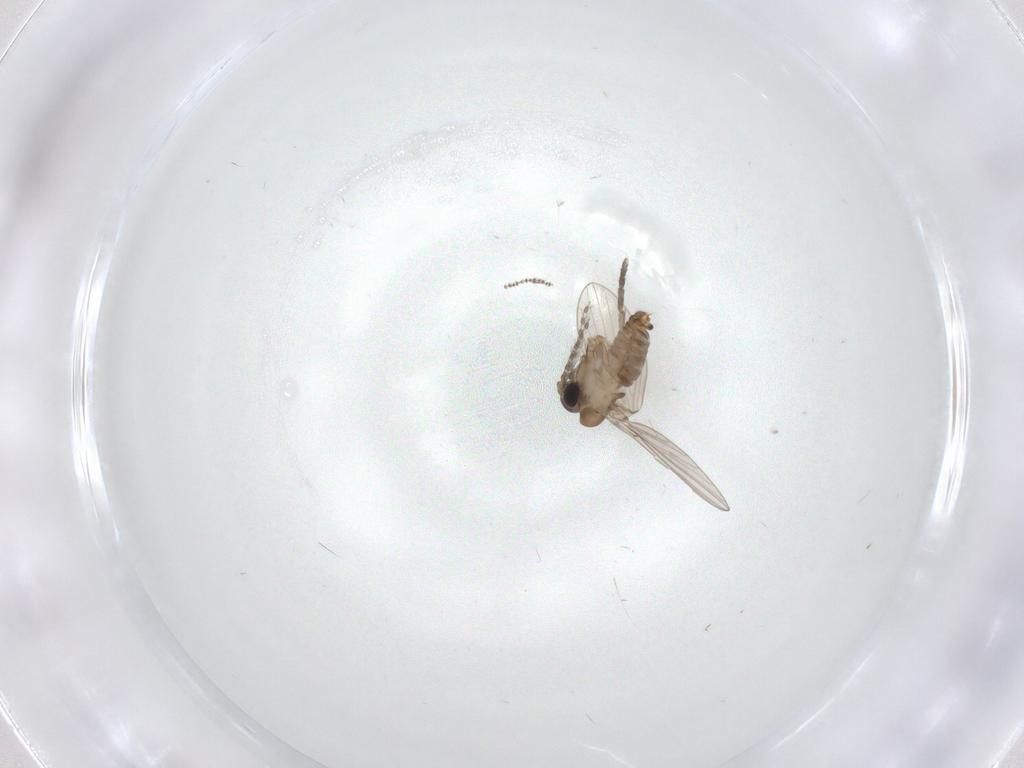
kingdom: Animalia
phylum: Arthropoda
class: Insecta
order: Diptera
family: Cecidomyiidae
